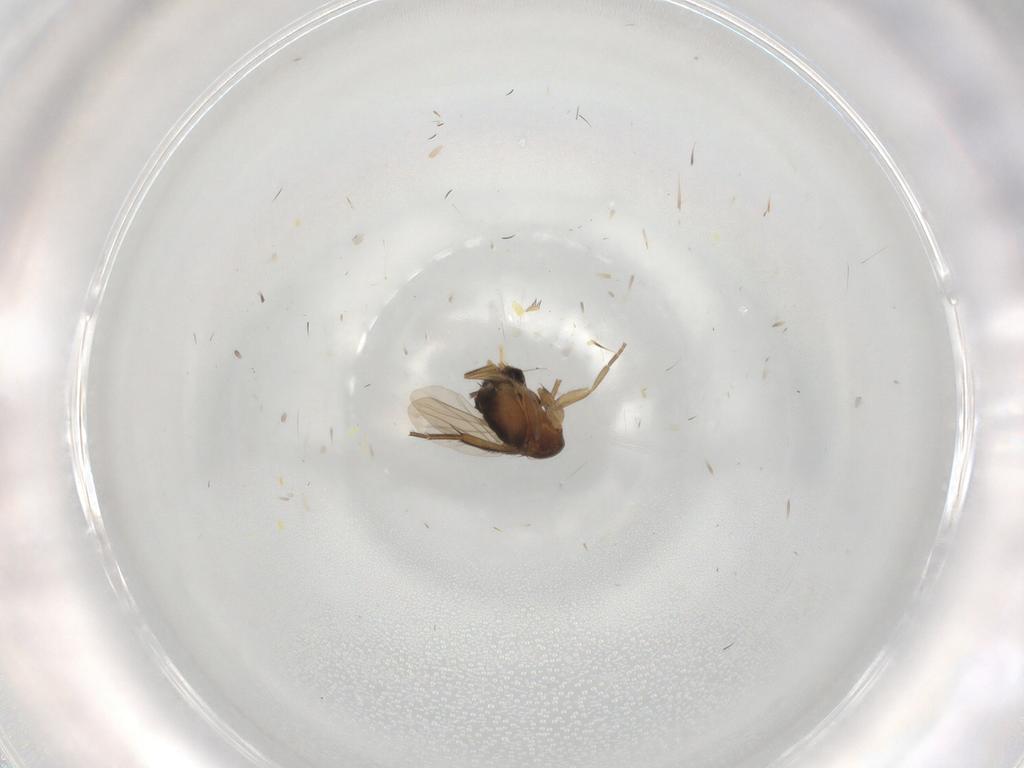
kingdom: Animalia
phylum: Arthropoda
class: Insecta
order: Diptera
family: Phoridae
